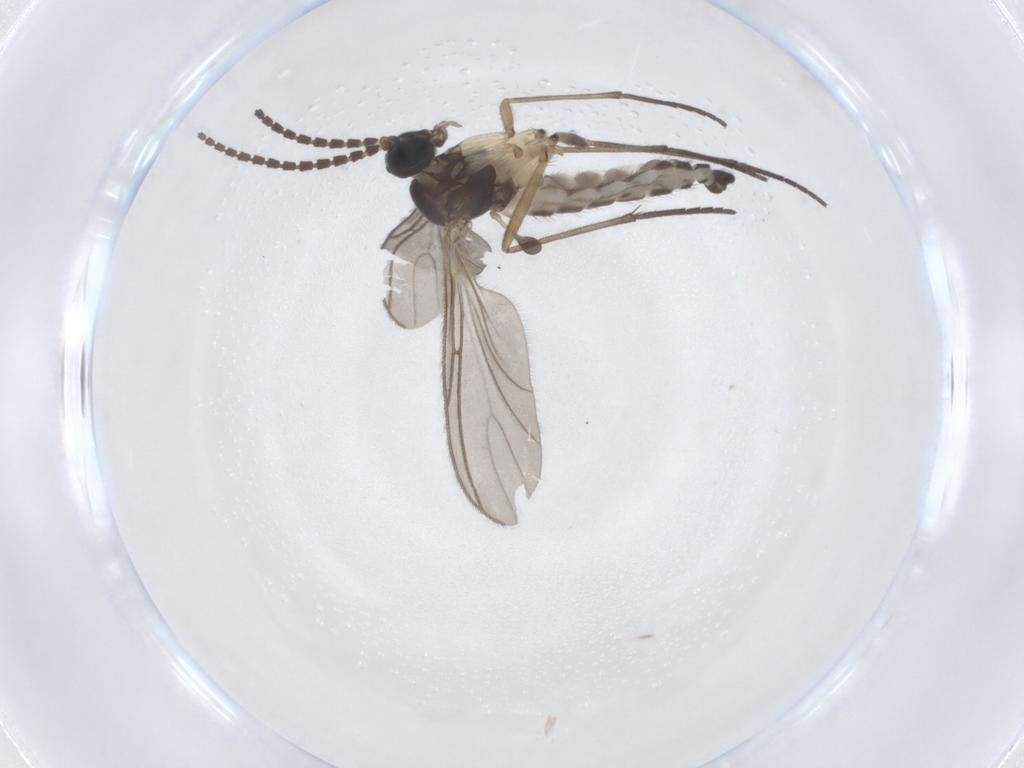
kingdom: Animalia
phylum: Arthropoda
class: Insecta
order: Diptera
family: Sciaridae
